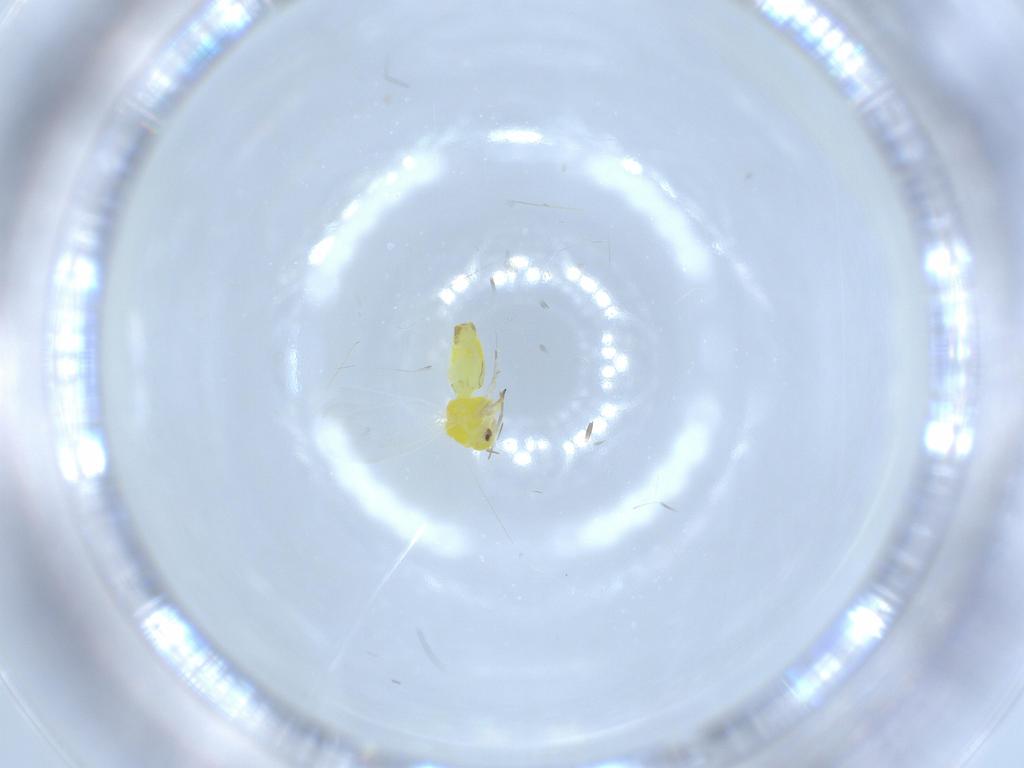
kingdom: Animalia
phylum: Arthropoda
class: Insecta
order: Hemiptera
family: Aleyrodidae
